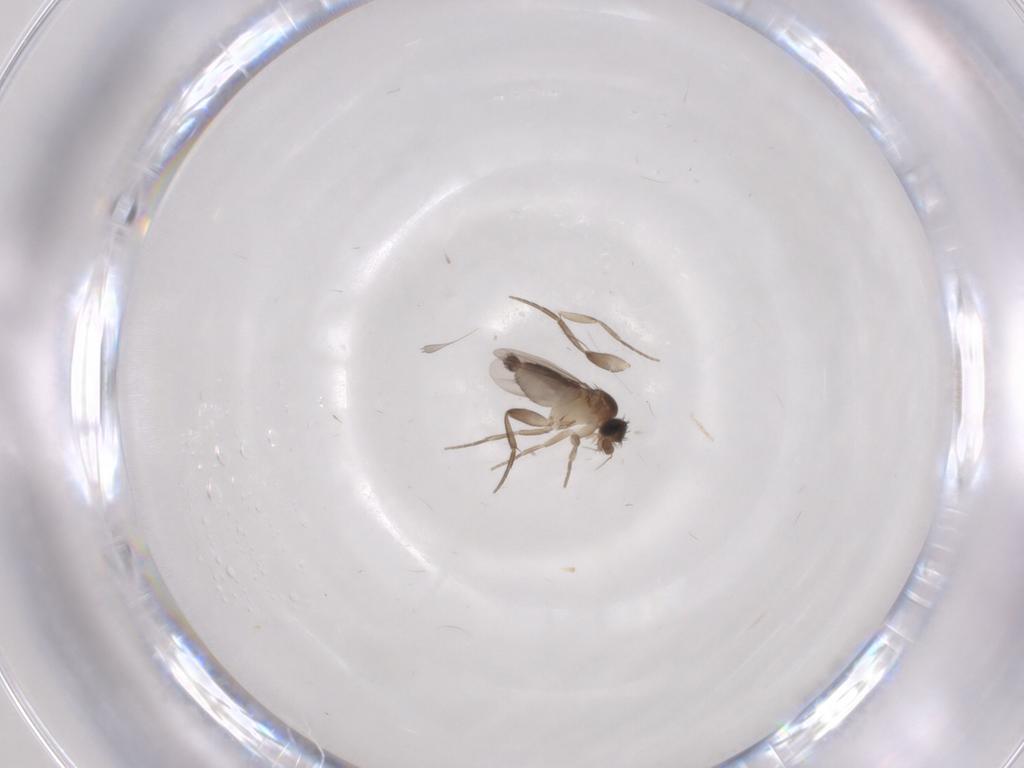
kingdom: Animalia
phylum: Arthropoda
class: Insecta
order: Diptera
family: Phoridae
